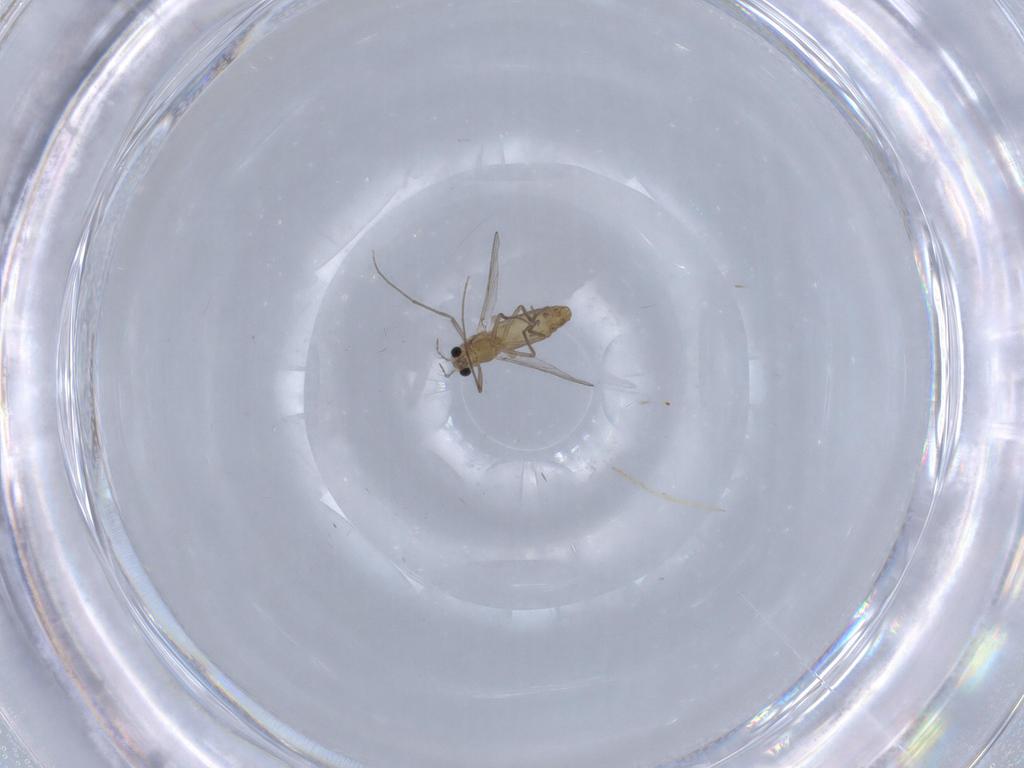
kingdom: Animalia
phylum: Arthropoda
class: Insecta
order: Diptera
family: Chironomidae
